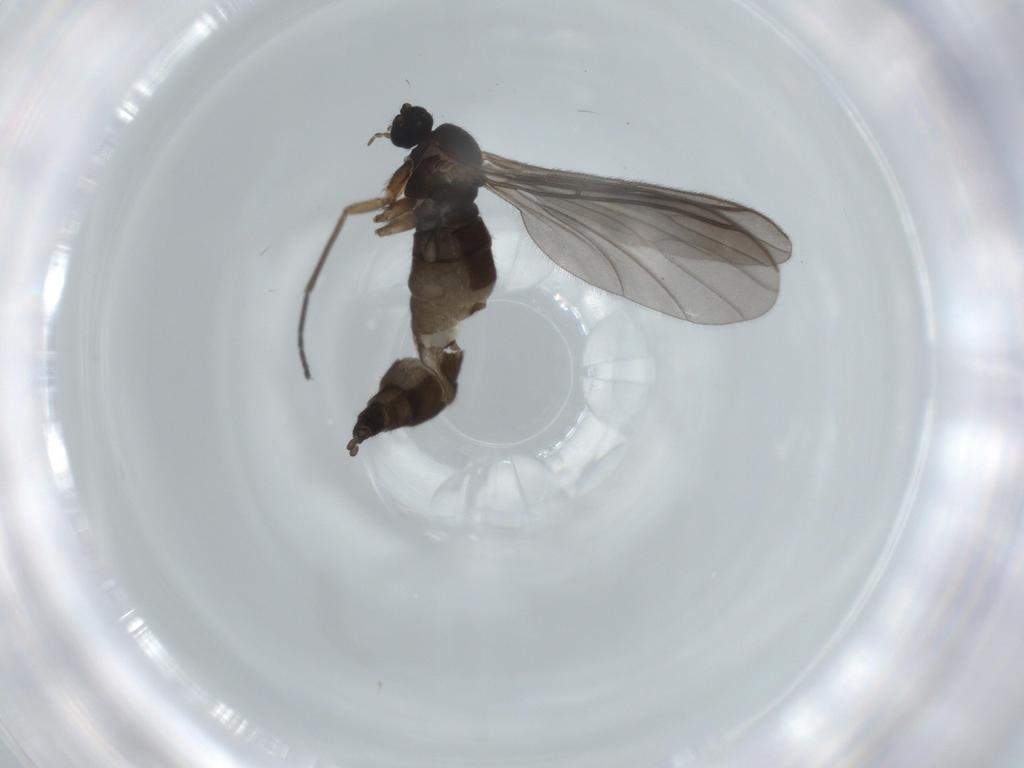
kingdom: Animalia
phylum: Arthropoda
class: Insecta
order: Diptera
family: Sciaridae
